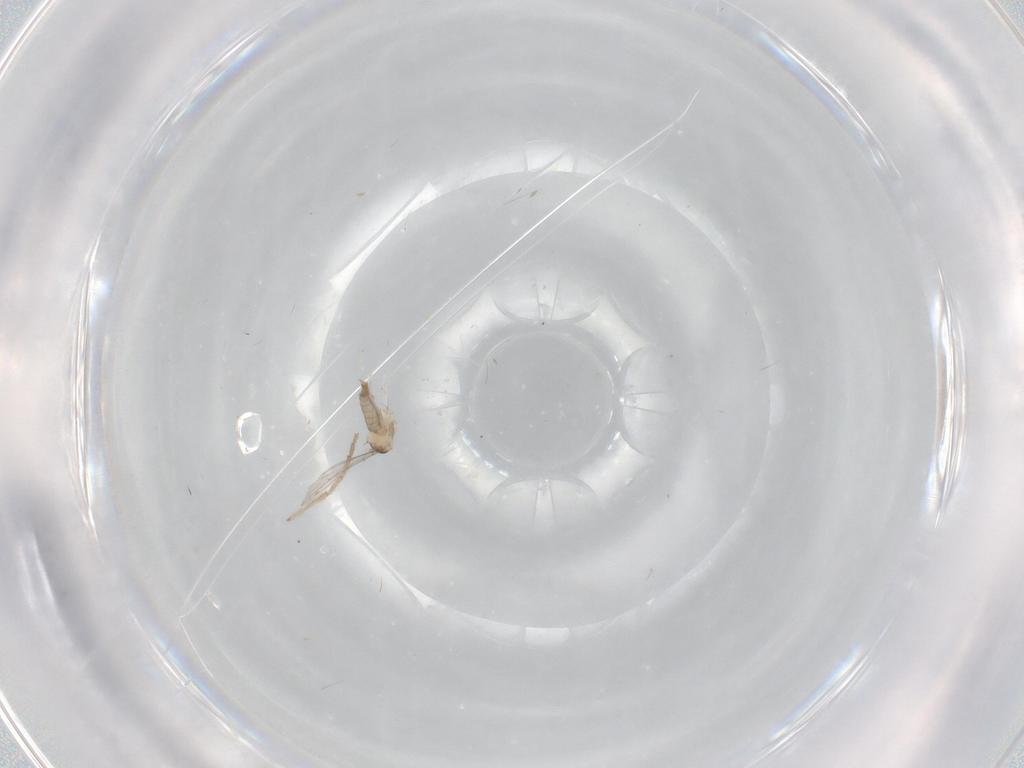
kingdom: Animalia
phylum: Arthropoda
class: Insecta
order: Diptera
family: Cecidomyiidae
